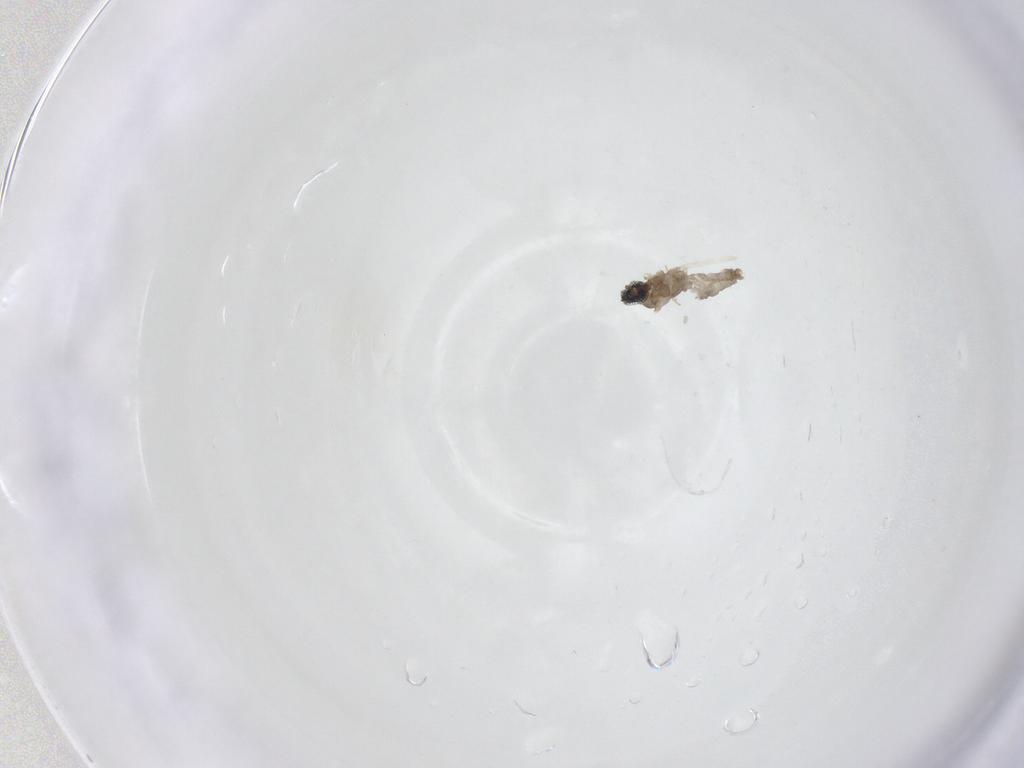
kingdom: Animalia
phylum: Arthropoda
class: Insecta
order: Diptera
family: Cecidomyiidae
